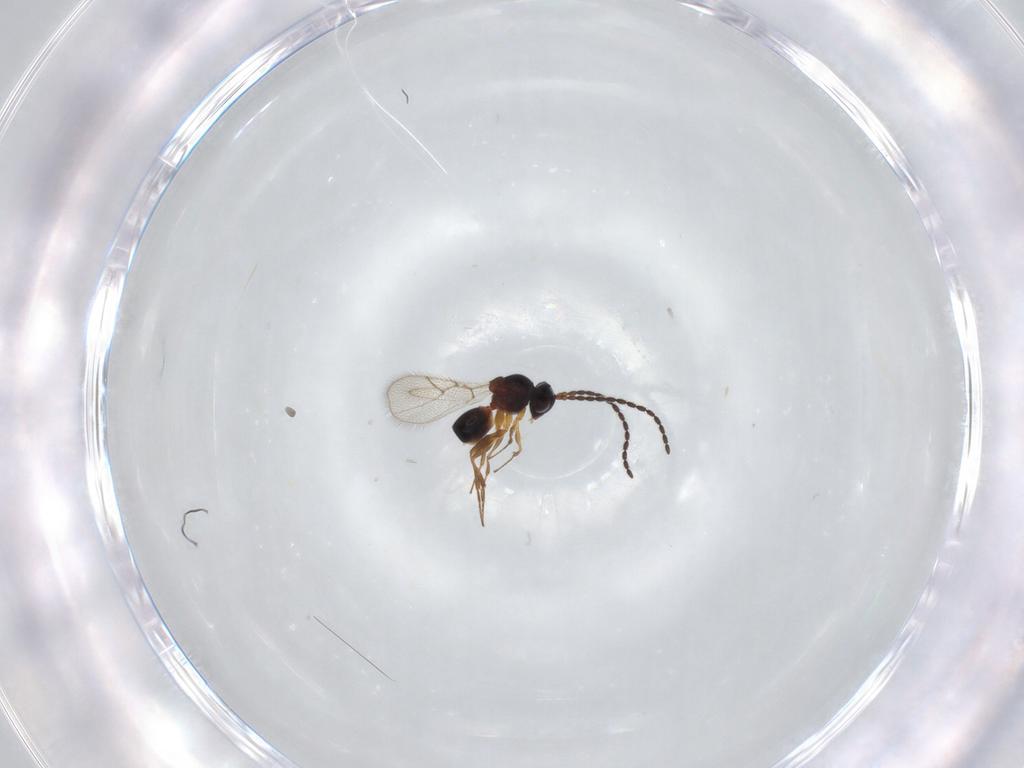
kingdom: Animalia
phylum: Arthropoda
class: Insecta
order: Hymenoptera
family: Figitidae
